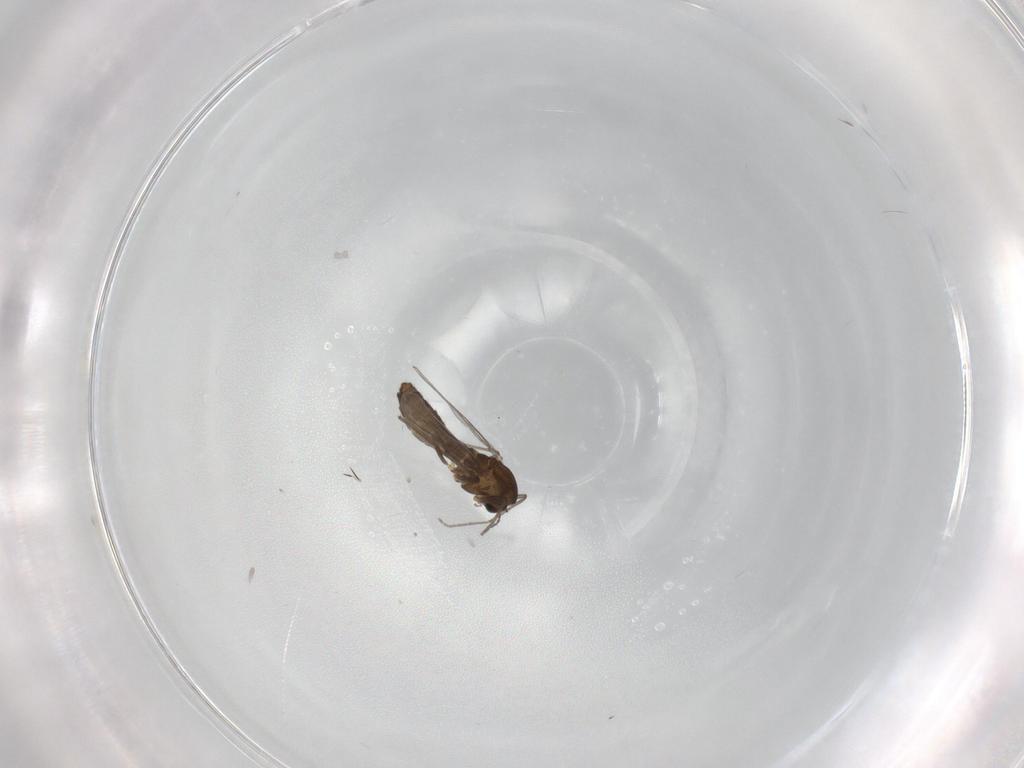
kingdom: Animalia
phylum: Arthropoda
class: Insecta
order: Diptera
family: Chironomidae
